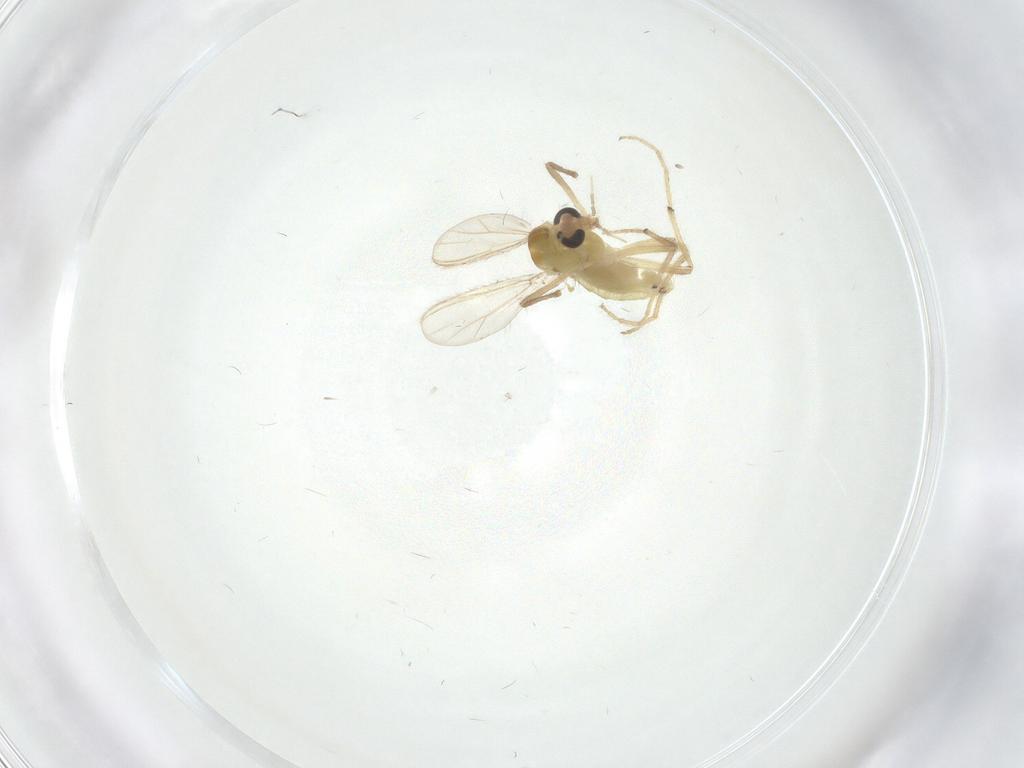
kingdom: Animalia
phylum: Arthropoda
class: Insecta
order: Diptera
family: Chironomidae
